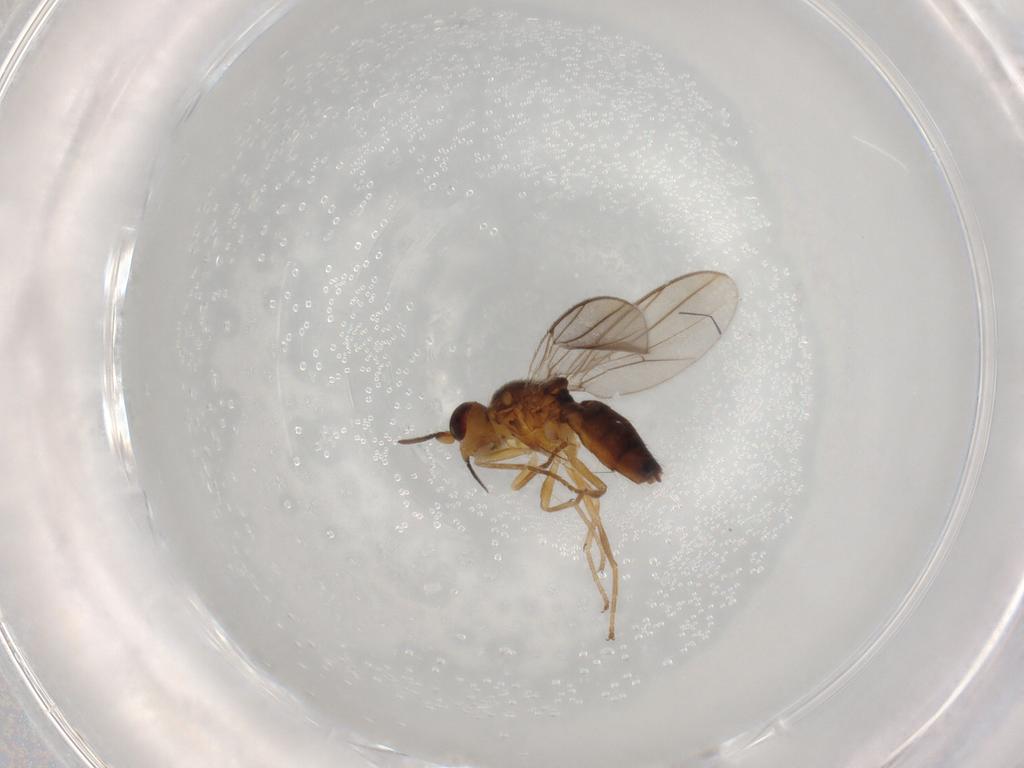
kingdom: Animalia
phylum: Arthropoda
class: Insecta
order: Diptera
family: Chloropidae
